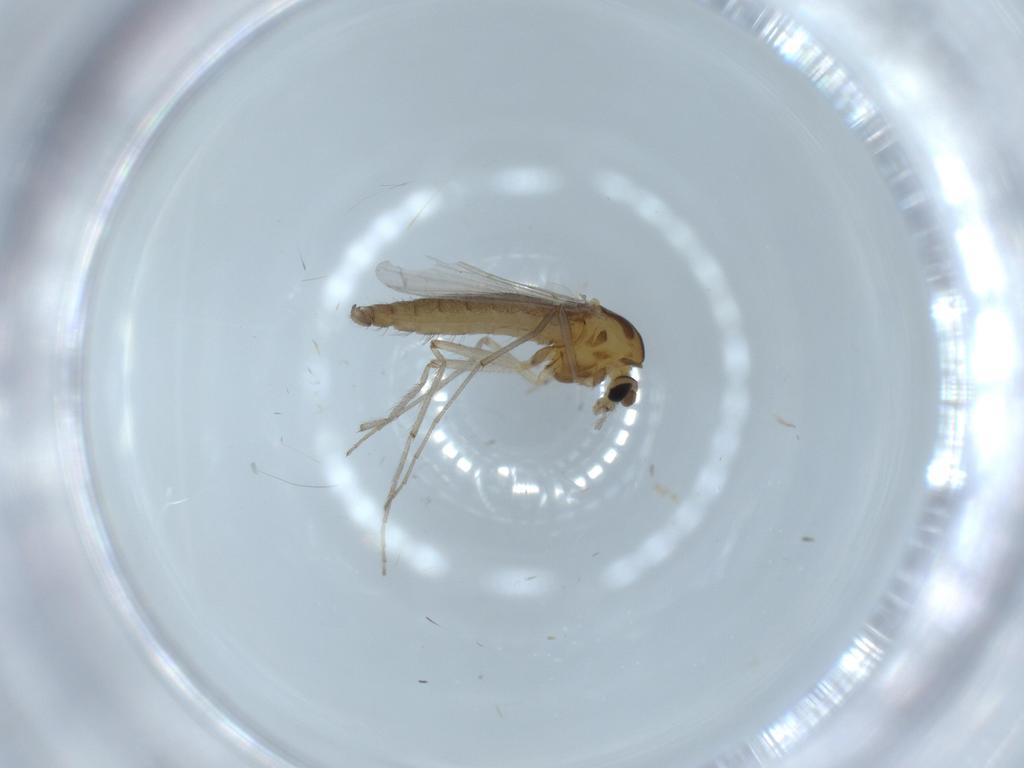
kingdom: Animalia
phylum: Arthropoda
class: Insecta
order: Diptera
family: Chironomidae
